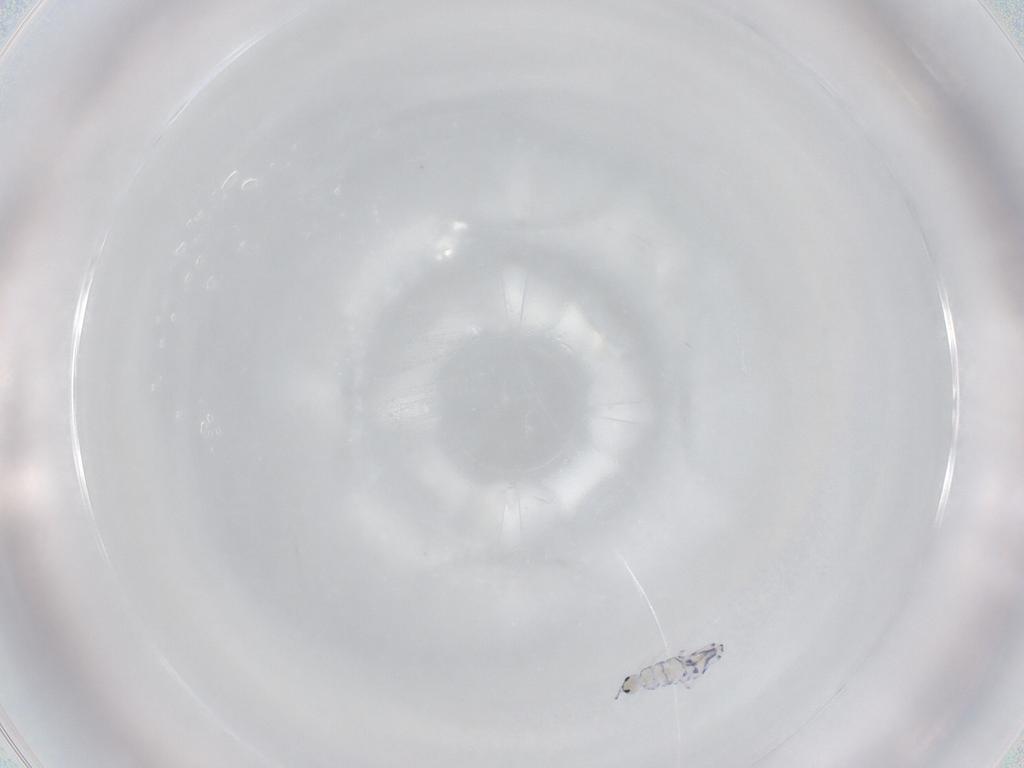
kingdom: Animalia
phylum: Arthropoda
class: Collembola
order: Entomobryomorpha
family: Entomobryidae
